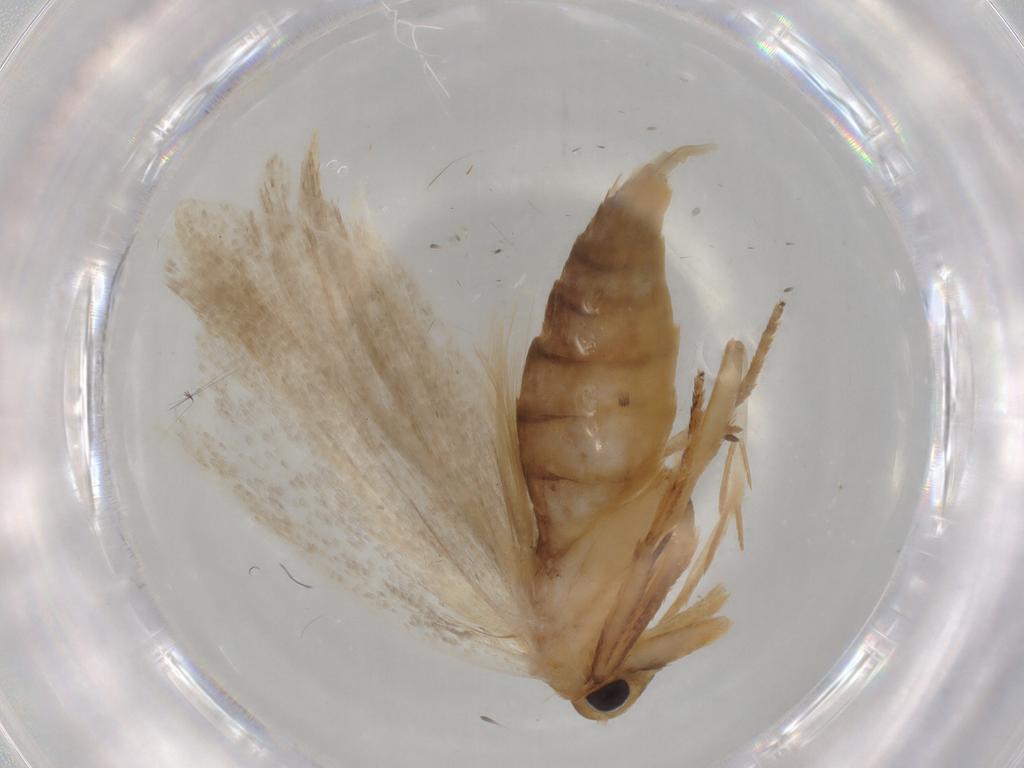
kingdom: Animalia
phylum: Arthropoda
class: Insecta
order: Lepidoptera
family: Depressariidae
